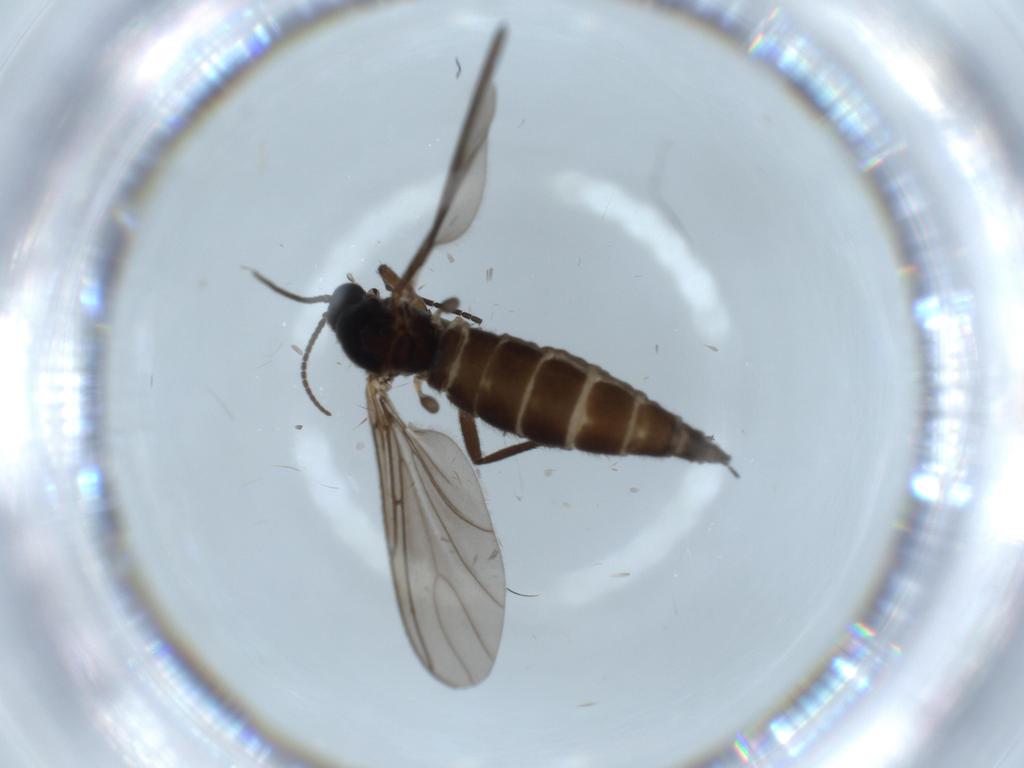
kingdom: Animalia
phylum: Arthropoda
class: Insecta
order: Diptera
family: Sciaridae
